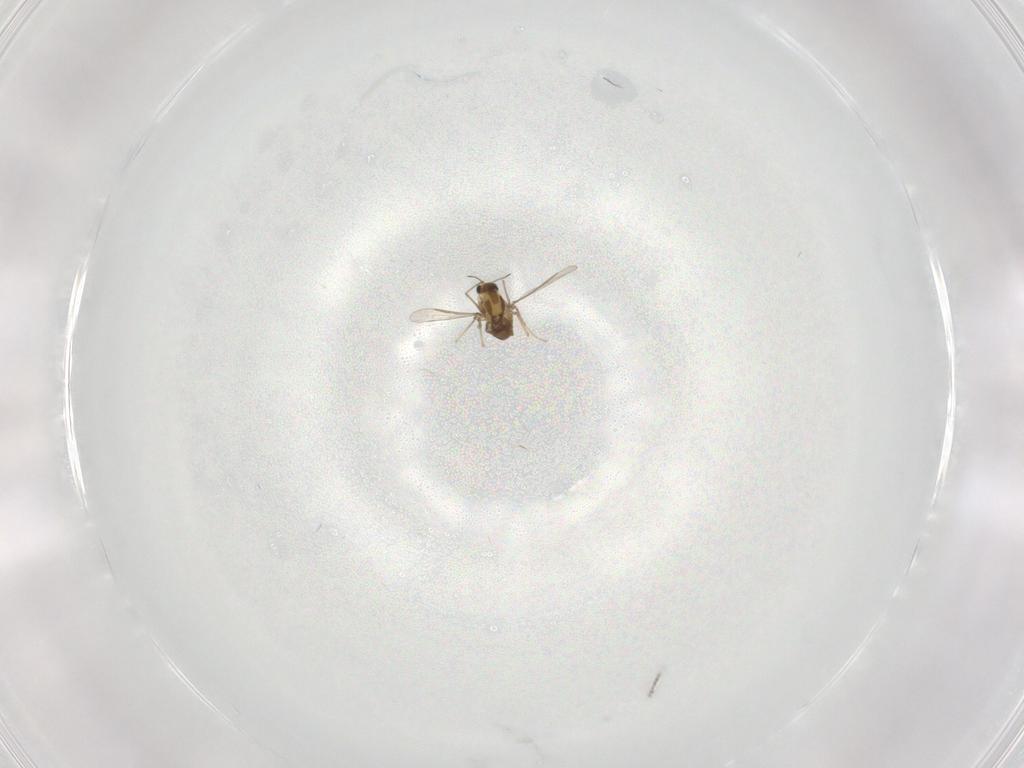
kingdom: Animalia
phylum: Arthropoda
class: Insecta
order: Diptera
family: Chironomidae
